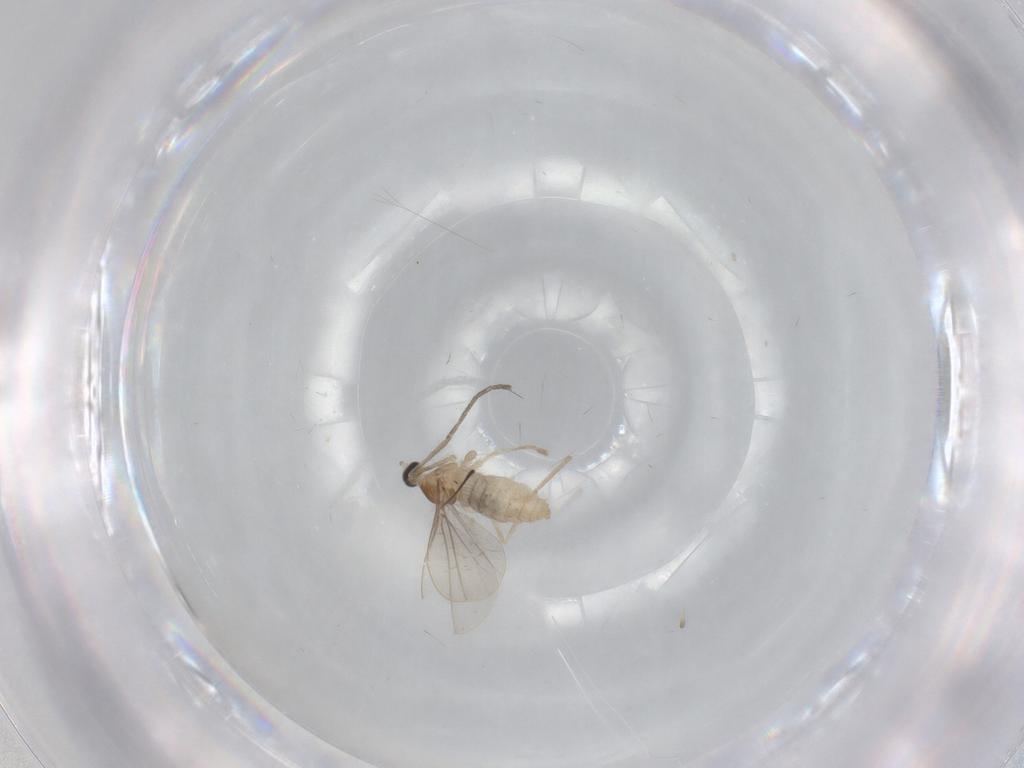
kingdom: Animalia
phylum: Arthropoda
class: Insecta
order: Diptera
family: Cecidomyiidae
